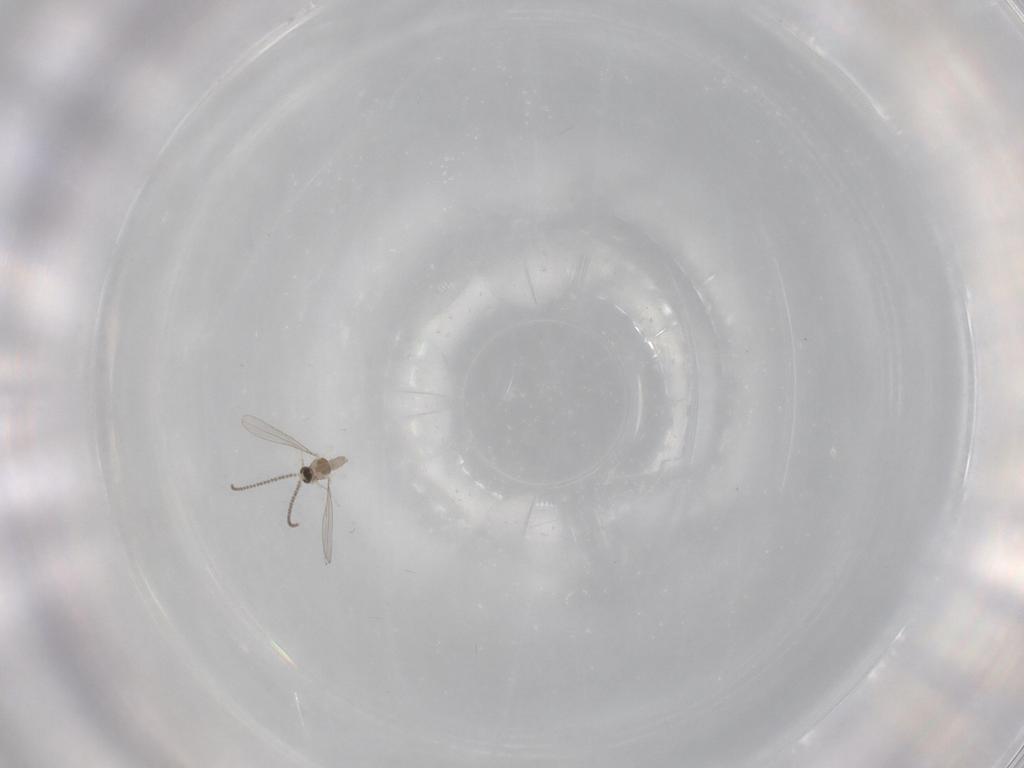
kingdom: Animalia
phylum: Arthropoda
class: Insecta
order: Diptera
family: Cecidomyiidae
